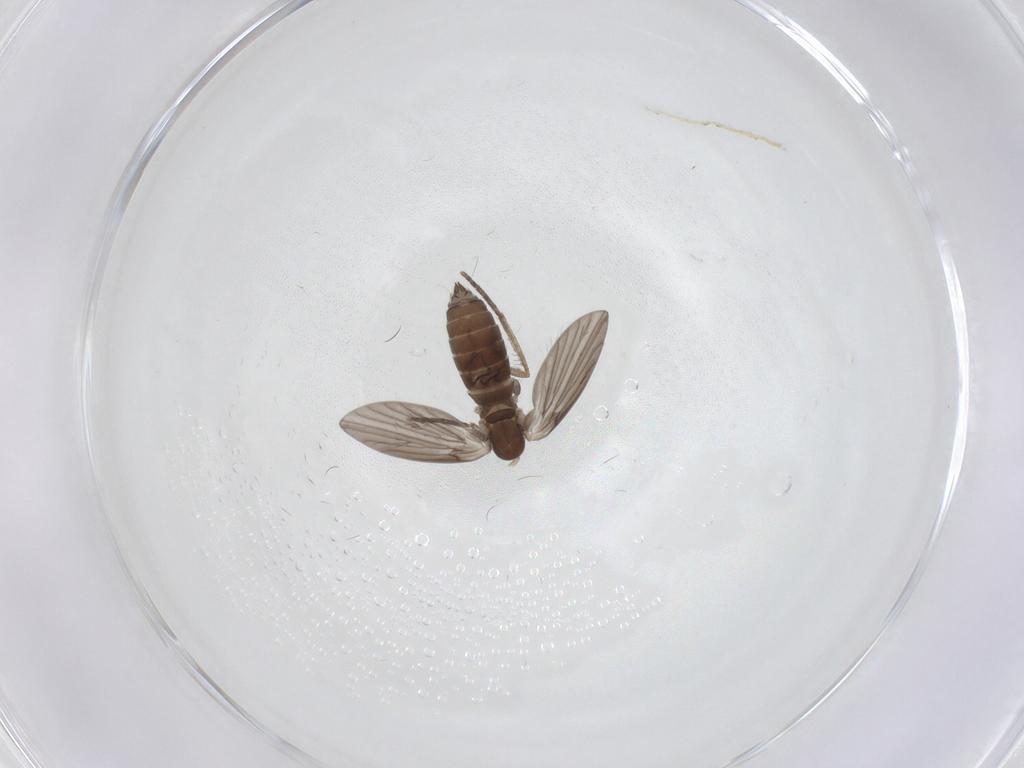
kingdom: Animalia
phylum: Arthropoda
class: Insecta
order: Diptera
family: Psychodidae
